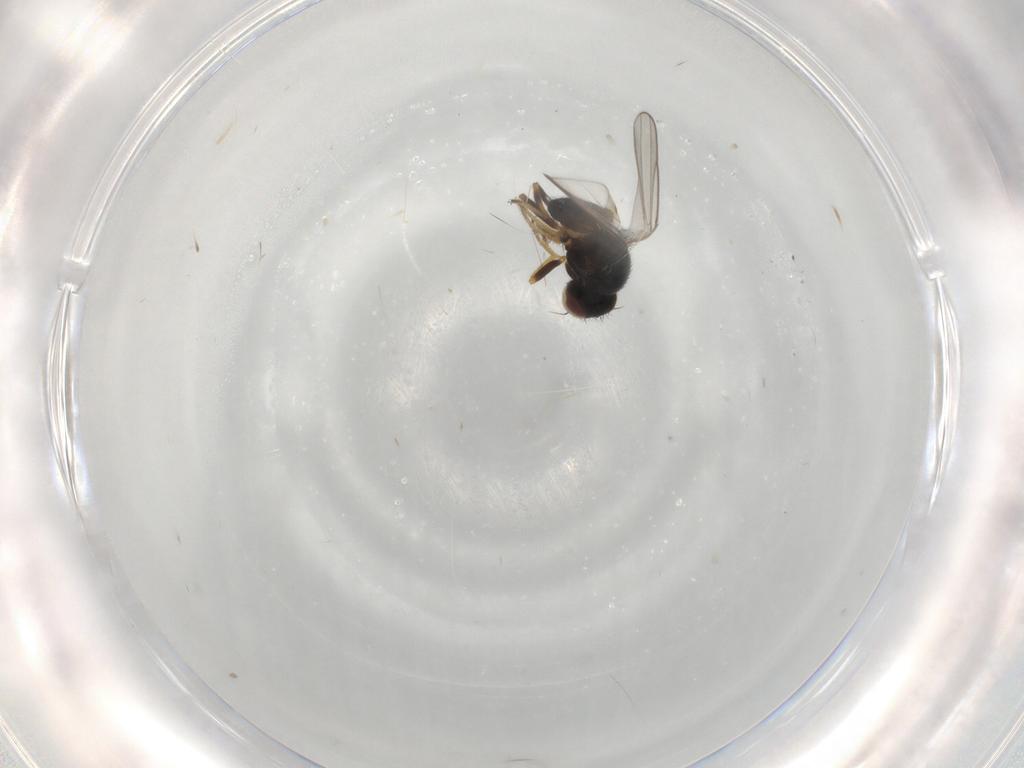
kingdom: Animalia
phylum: Arthropoda
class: Insecta
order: Diptera
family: Chloropidae
